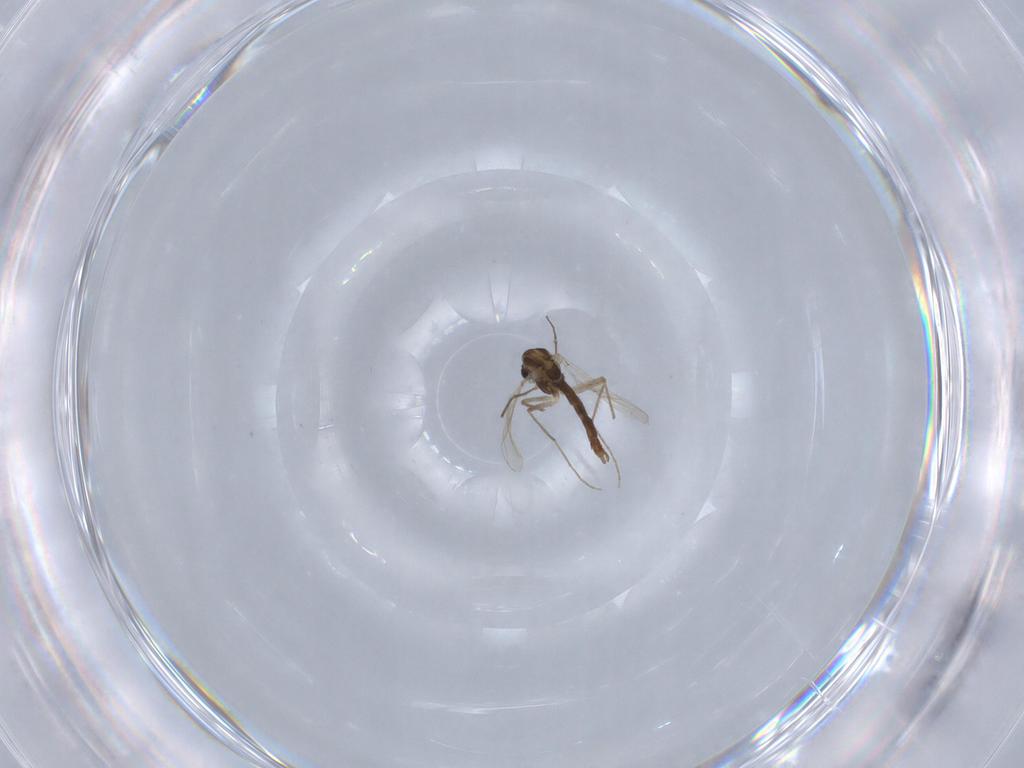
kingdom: Animalia
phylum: Arthropoda
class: Insecta
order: Diptera
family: Chironomidae
